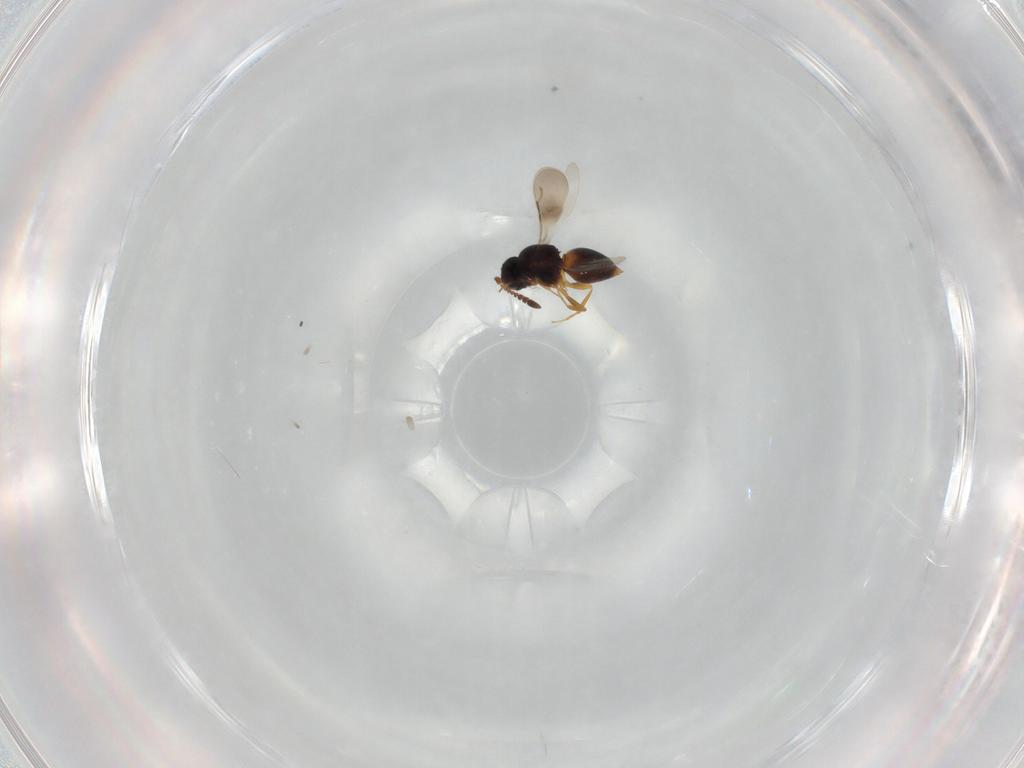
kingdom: Animalia
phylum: Arthropoda
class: Insecta
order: Hymenoptera
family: Vespidae
